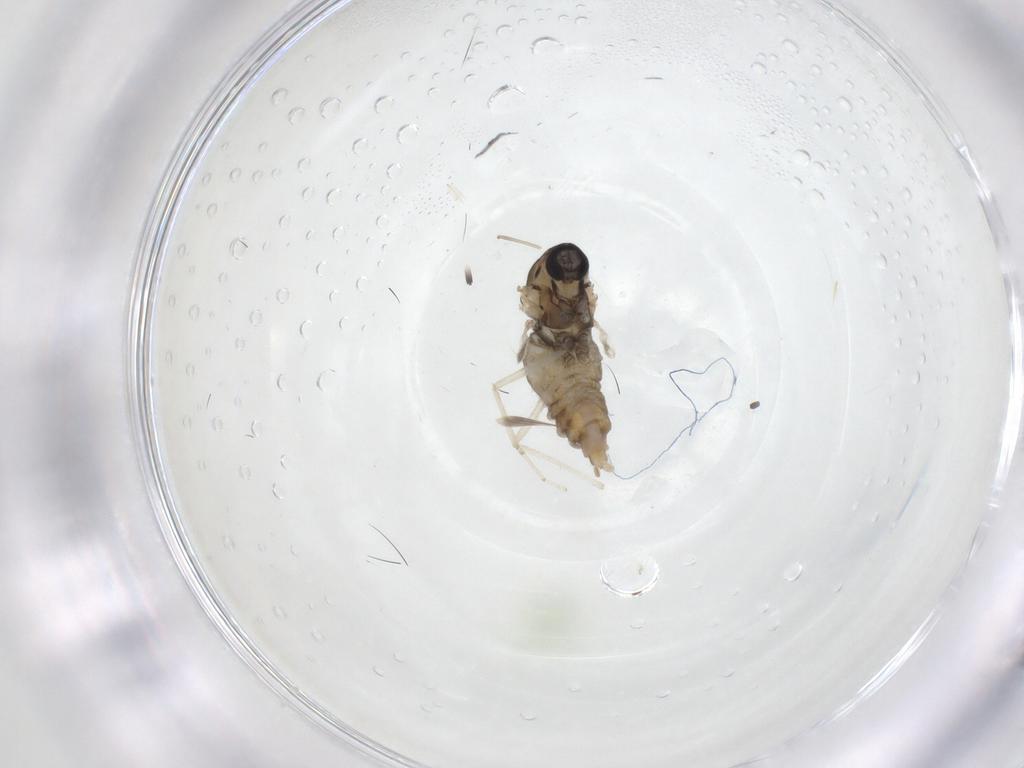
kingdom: Animalia
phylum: Arthropoda
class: Insecta
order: Diptera
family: Cecidomyiidae
